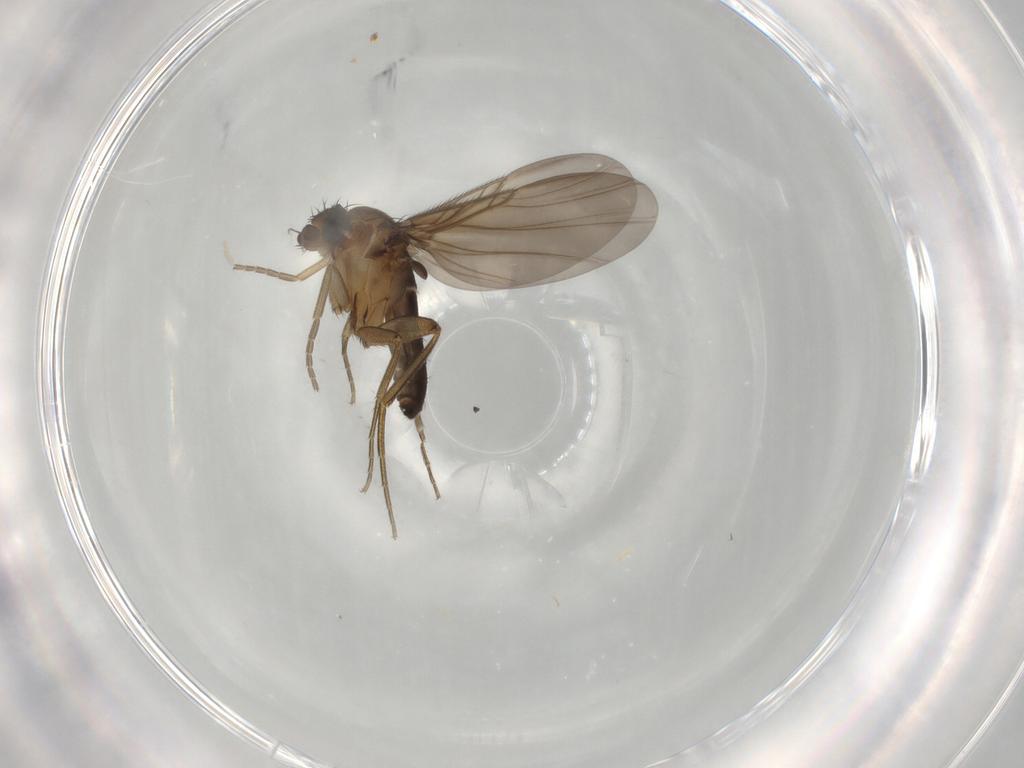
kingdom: Animalia
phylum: Arthropoda
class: Insecta
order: Diptera
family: Phoridae
